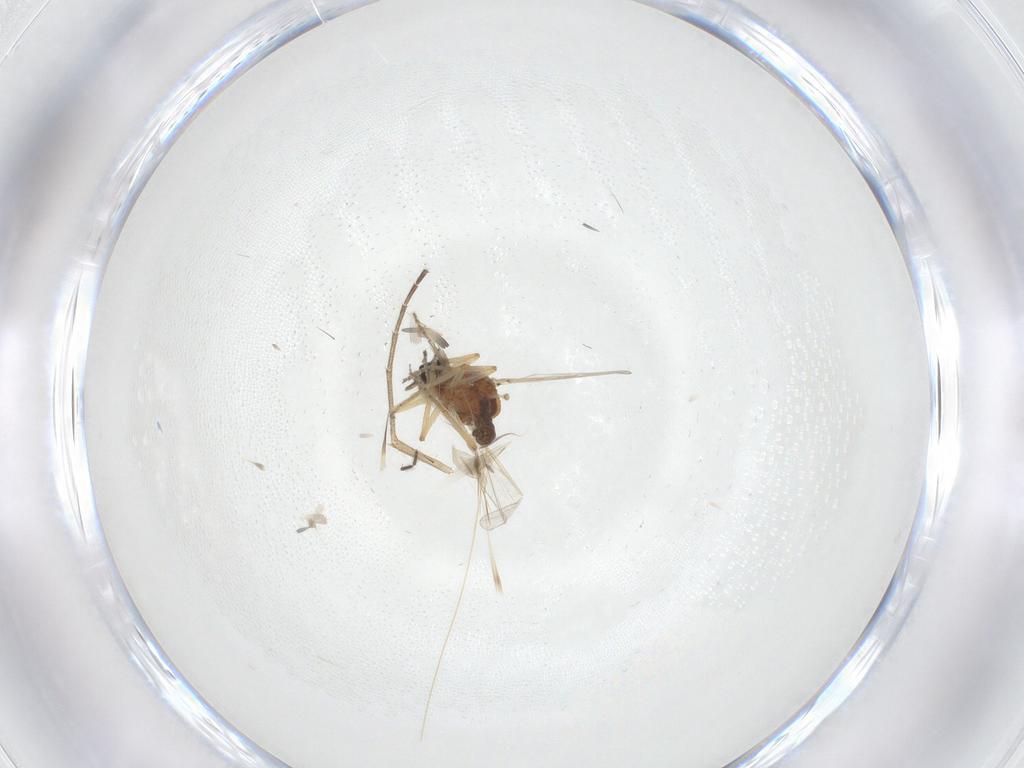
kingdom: Animalia
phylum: Arthropoda
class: Insecta
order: Diptera
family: Ceratopogonidae
